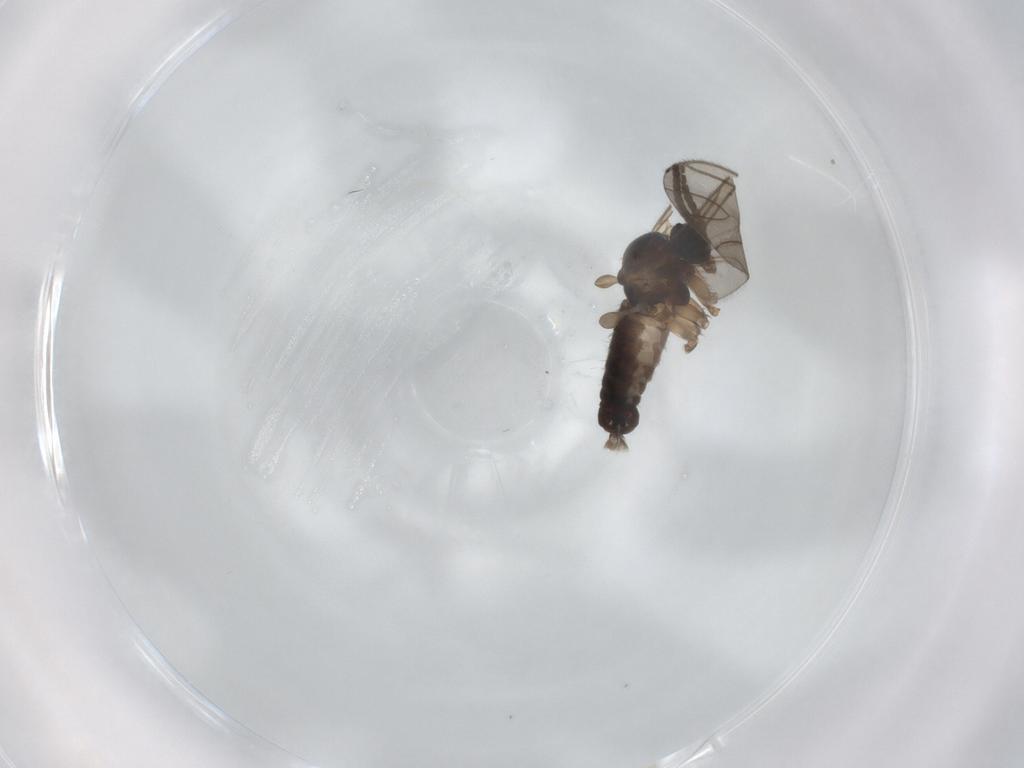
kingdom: Animalia
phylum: Arthropoda
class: Insecta
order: Diptera
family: Sciaridae
